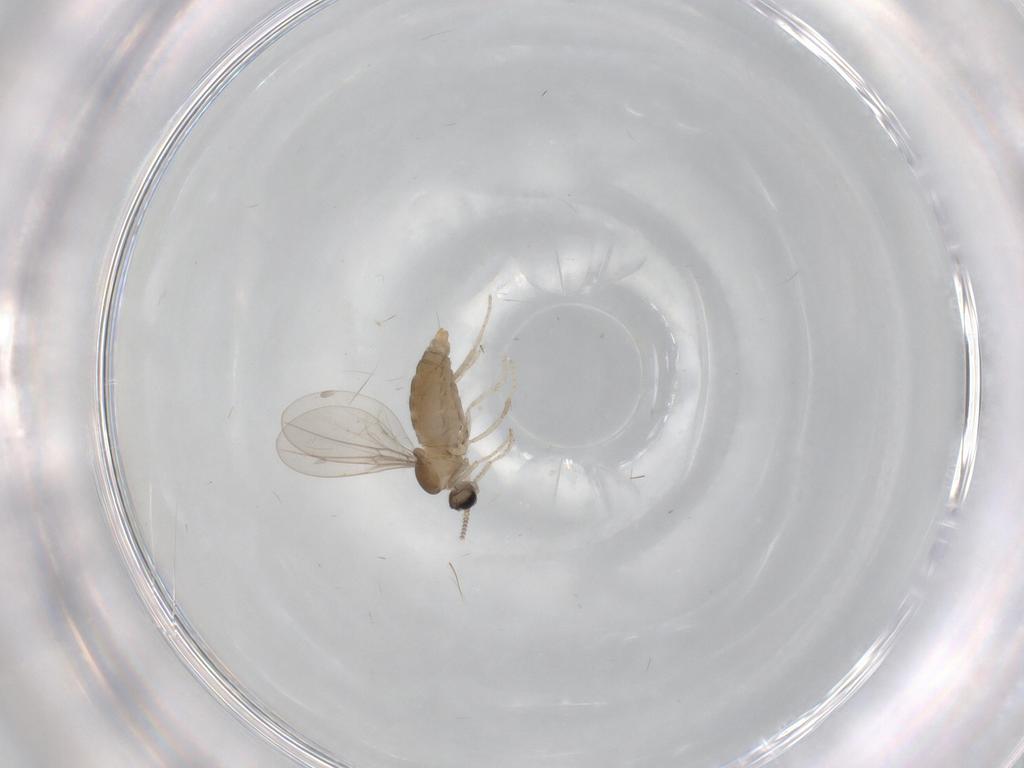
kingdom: Animalia
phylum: Arthropoda
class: Insecta
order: Diptera
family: Cecidomyiidae
